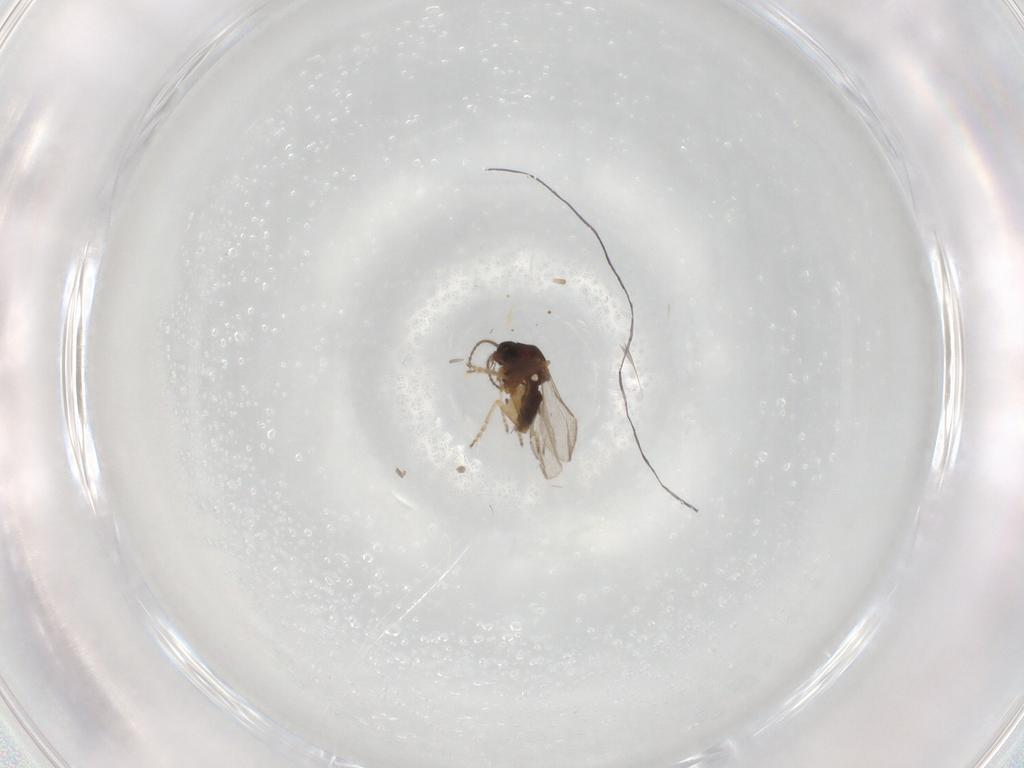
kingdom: Animalia
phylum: Arthropoda
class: Insecta
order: Diptera
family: Ceratopogonidae
